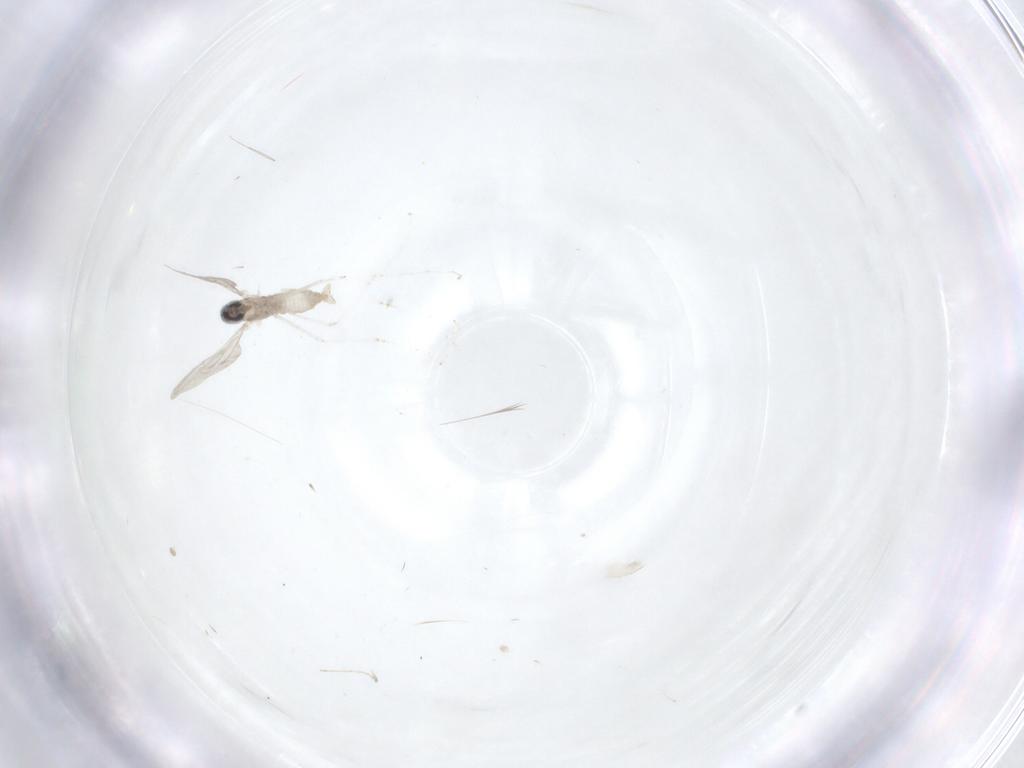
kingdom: Animalia
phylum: Arthropoda
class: Insecta
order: Diptera
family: Cecidomyiidae
